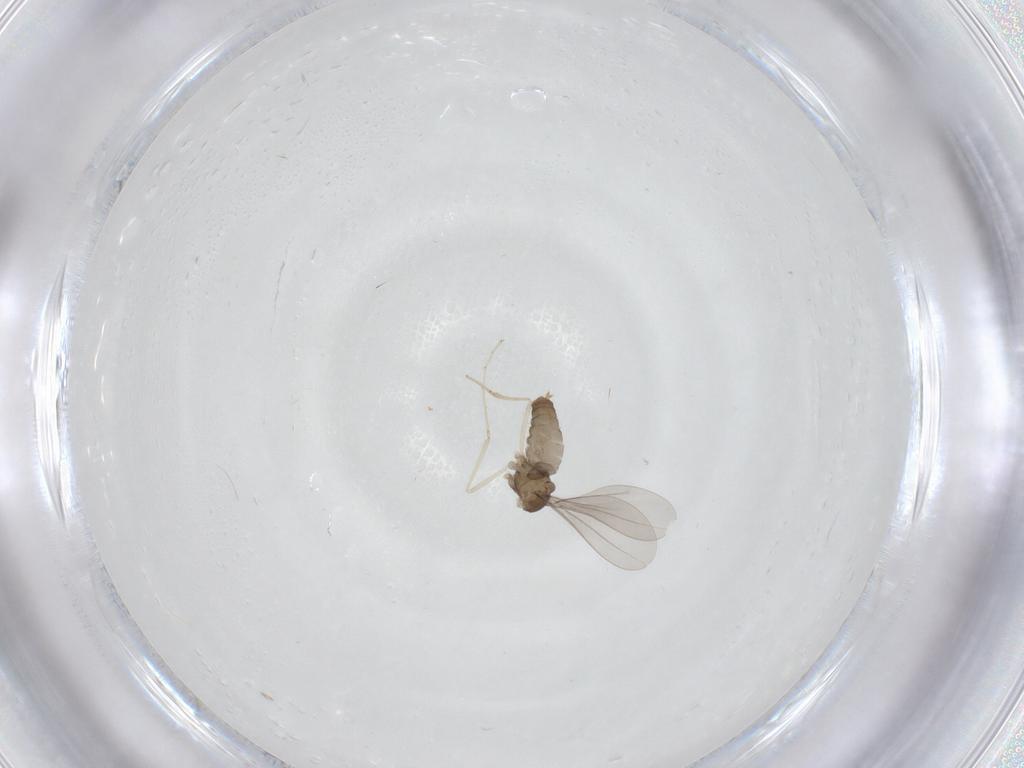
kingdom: Animalia
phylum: Arthropoda
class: Insecta
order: Diptera
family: Cecidomyiidae
